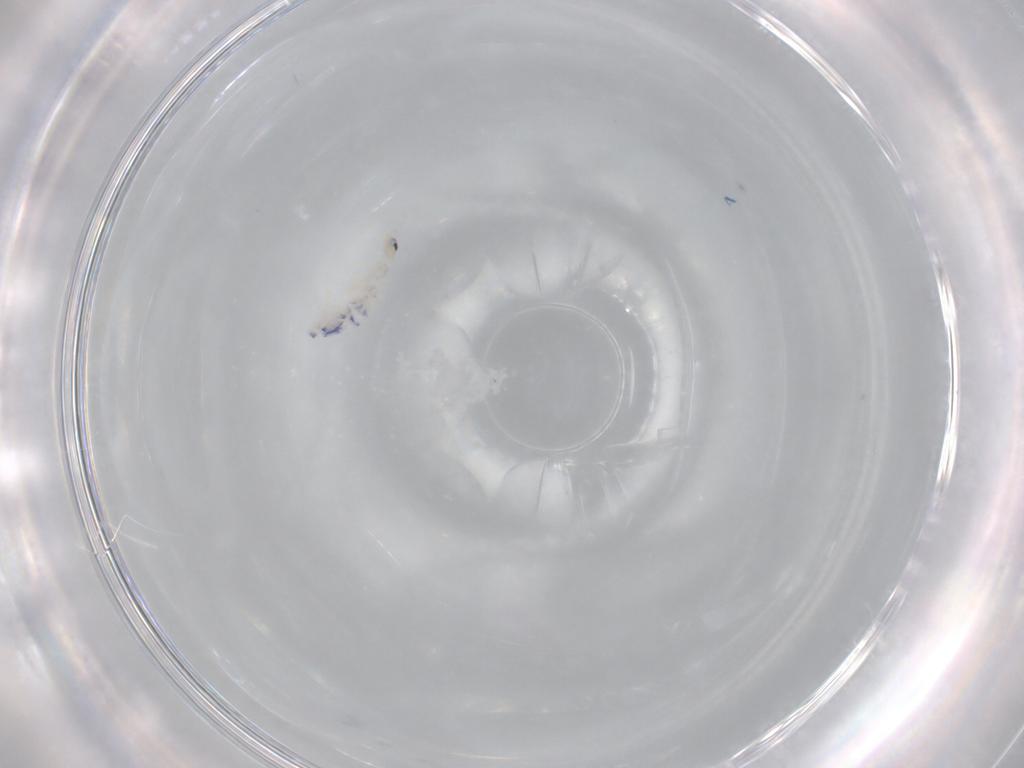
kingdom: Animalia
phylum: Arthropoda
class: Collembola
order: Entomobryomorpha
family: Entomobryidae
